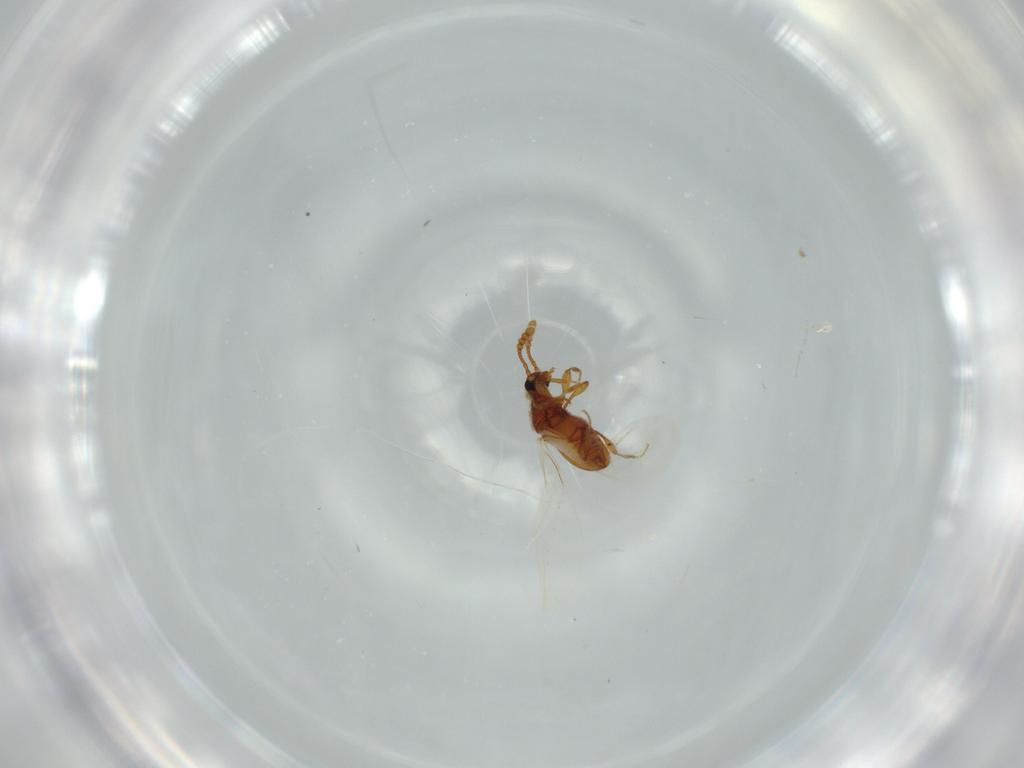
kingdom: Animalia
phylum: Arthropoda
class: Insecta
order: Coleoptera
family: Staphylinidae
